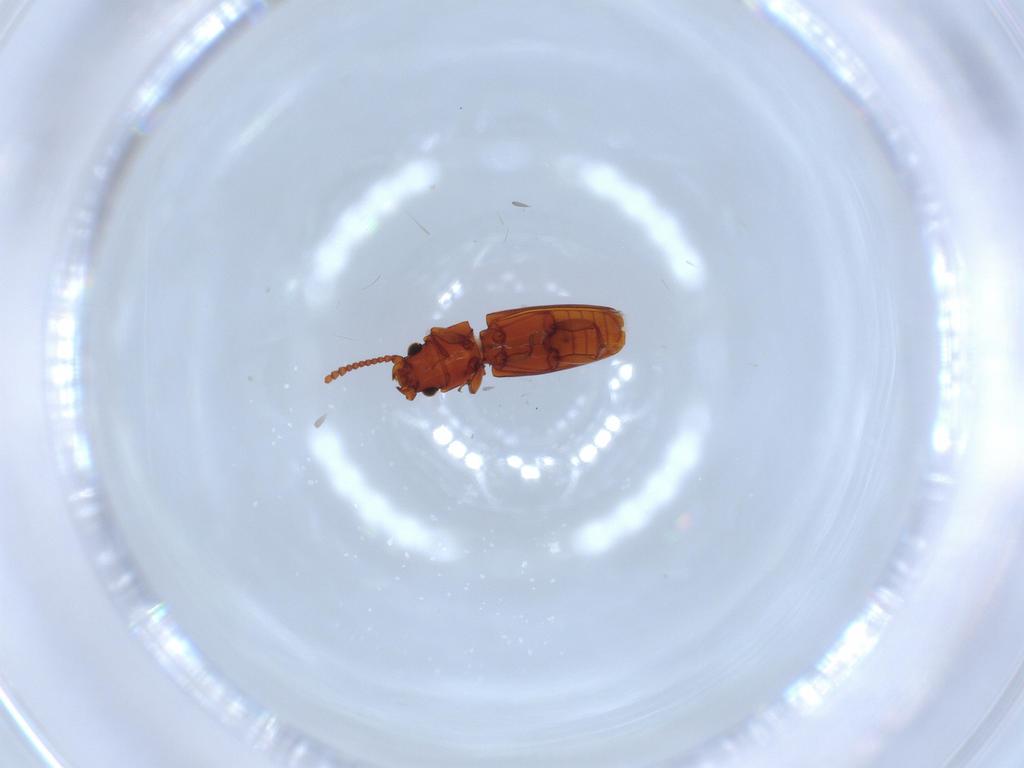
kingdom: Animalia
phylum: Arthropoda
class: Insecta
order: Coleoptera
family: Laemophloeidae
